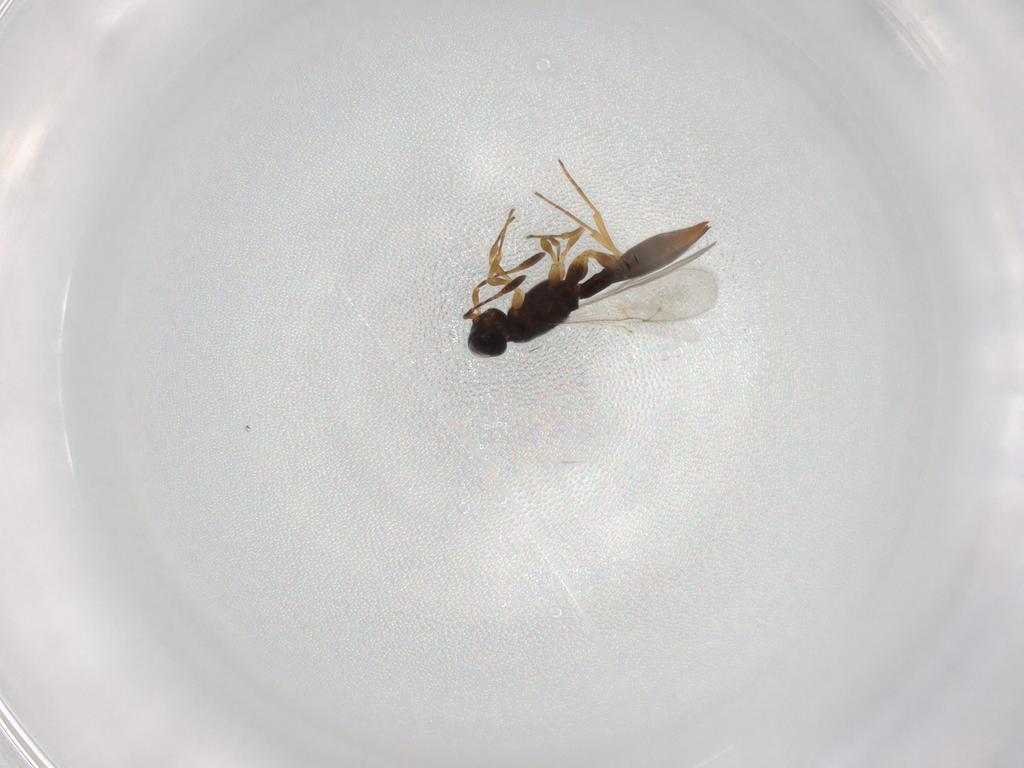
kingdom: Animalia
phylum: Arthropoda
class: Insecta
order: Hymenoptera
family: Scelionidae
